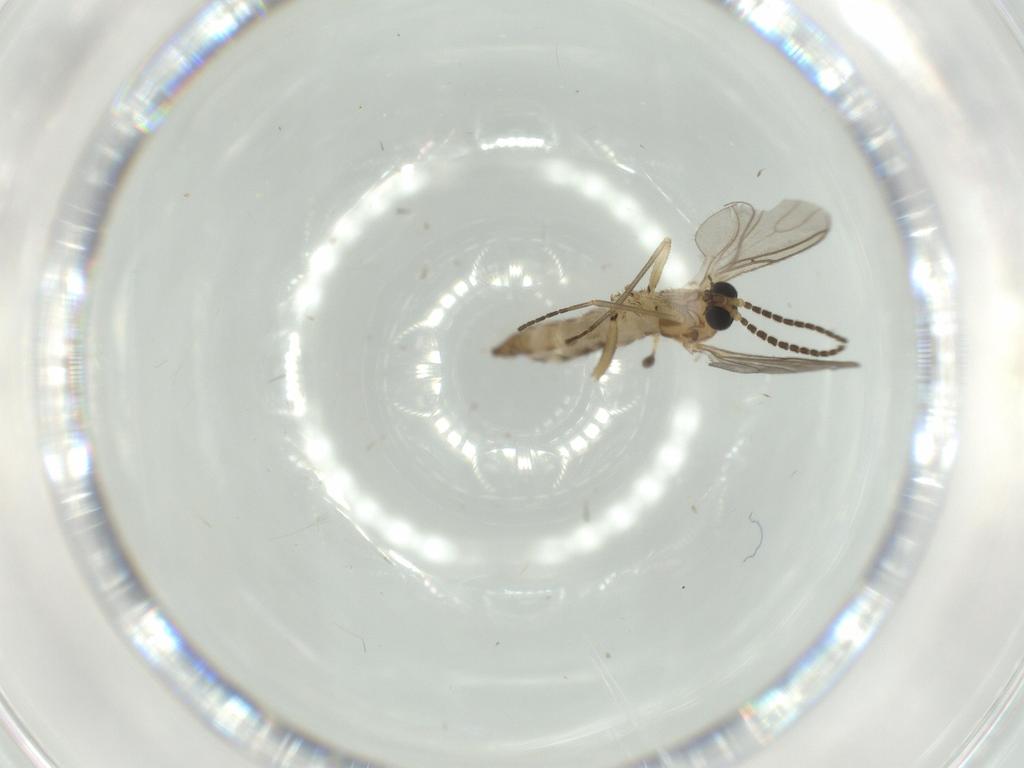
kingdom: Animalia
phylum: Arthropoda
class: Insecta
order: Diptera
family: Sciaridae
